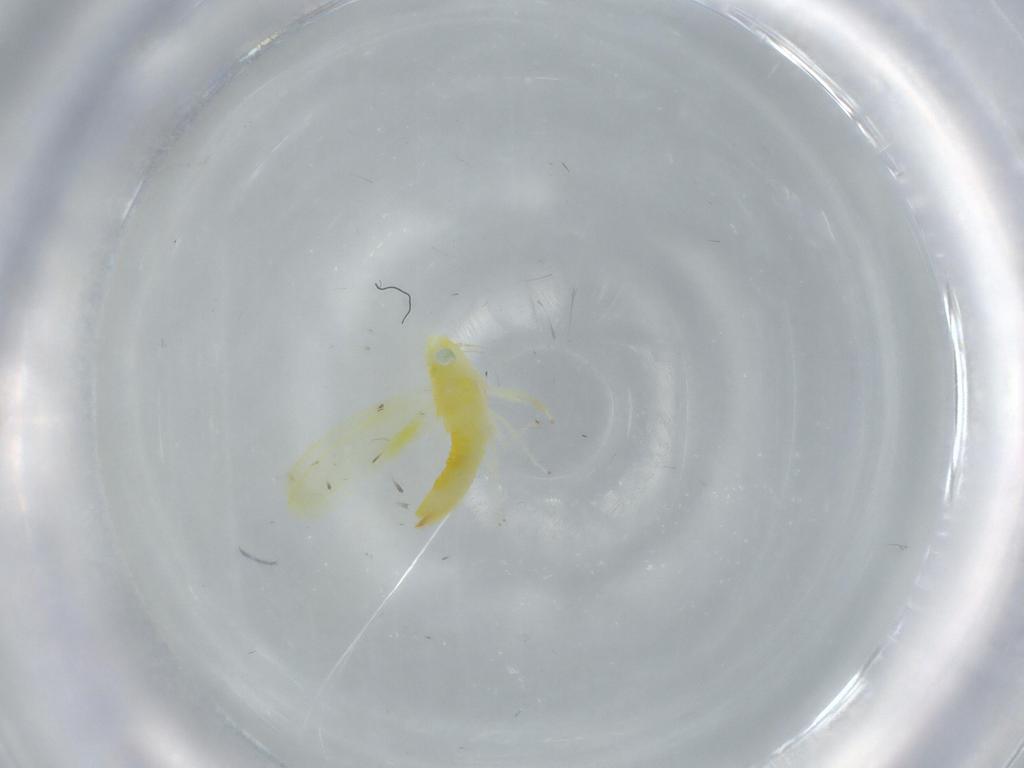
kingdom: Animalia
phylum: Arthropoda
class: Insecta
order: Hemiptera
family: Cicadellidae
